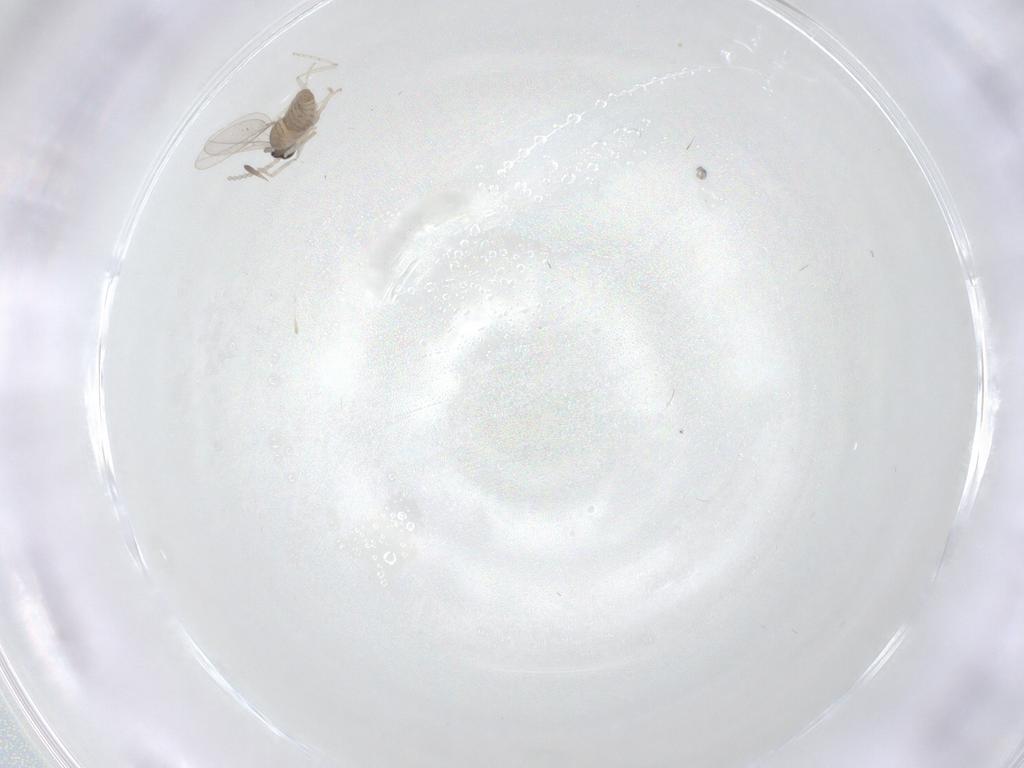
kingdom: Animalia
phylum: Arthropoda
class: Insecta
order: Diptera
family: Cecidomyiidae
